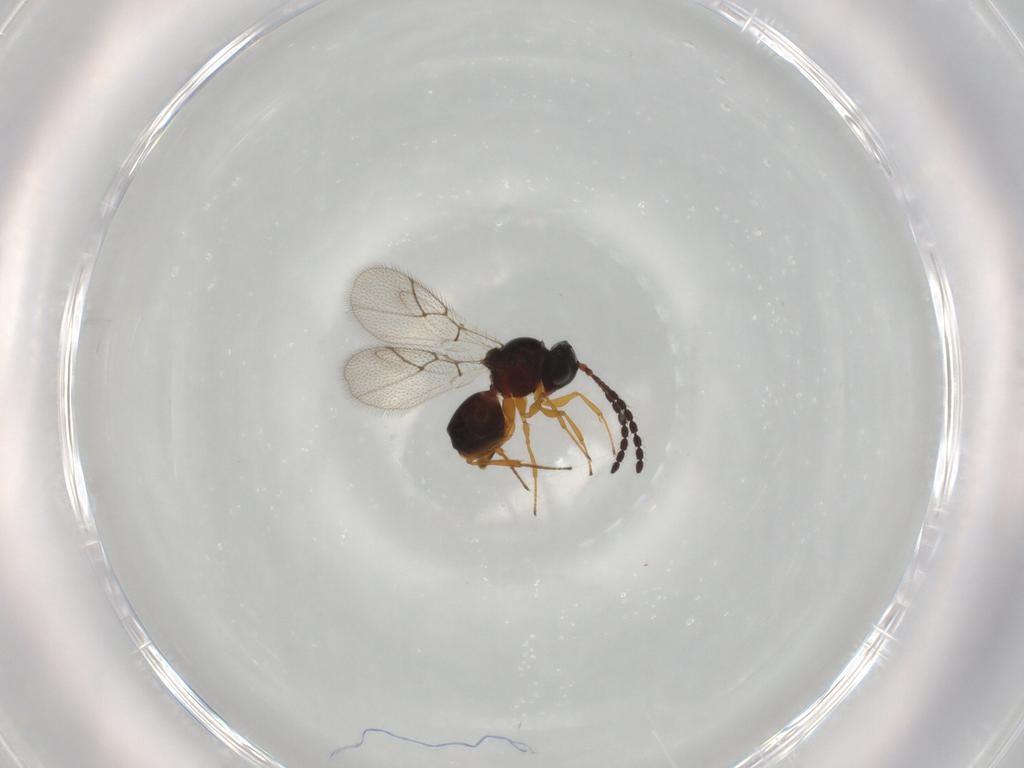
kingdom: Animalia
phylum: Arthropoda
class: Insecta
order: Hymenoptera
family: Figitidae
